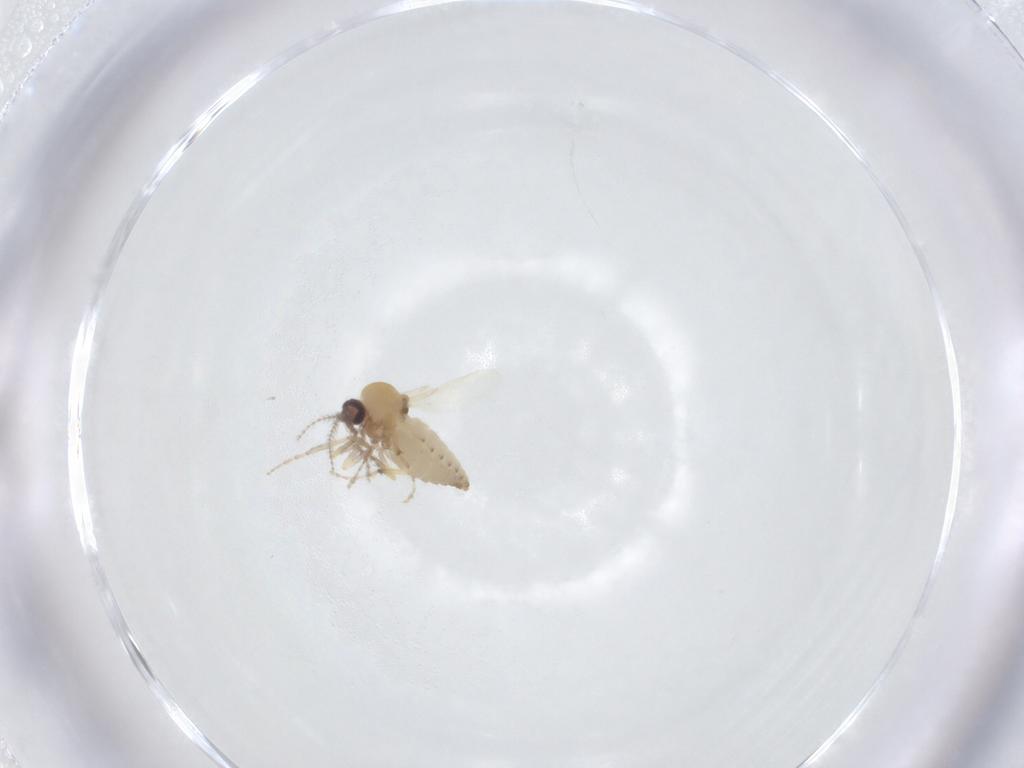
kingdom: Animalia
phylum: Arthropoda
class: Insecta
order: Diptera
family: Ceratopogonidae
